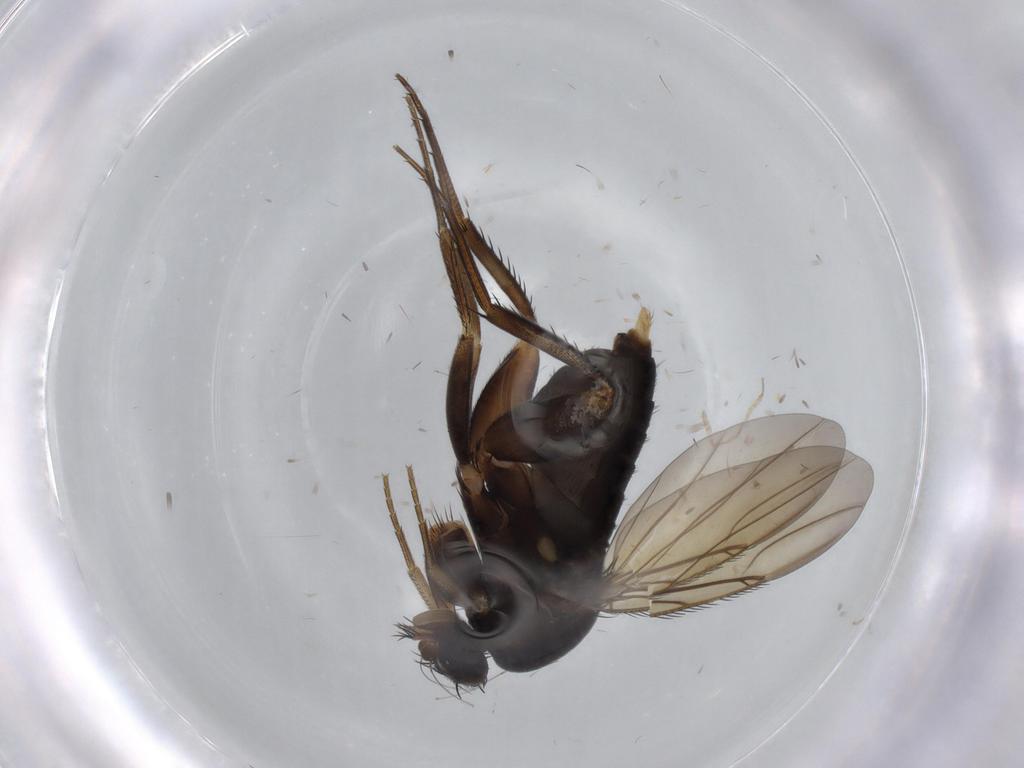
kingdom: Animalia
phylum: Arthropoda
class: Insecta
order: Diptera
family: Phoridae
